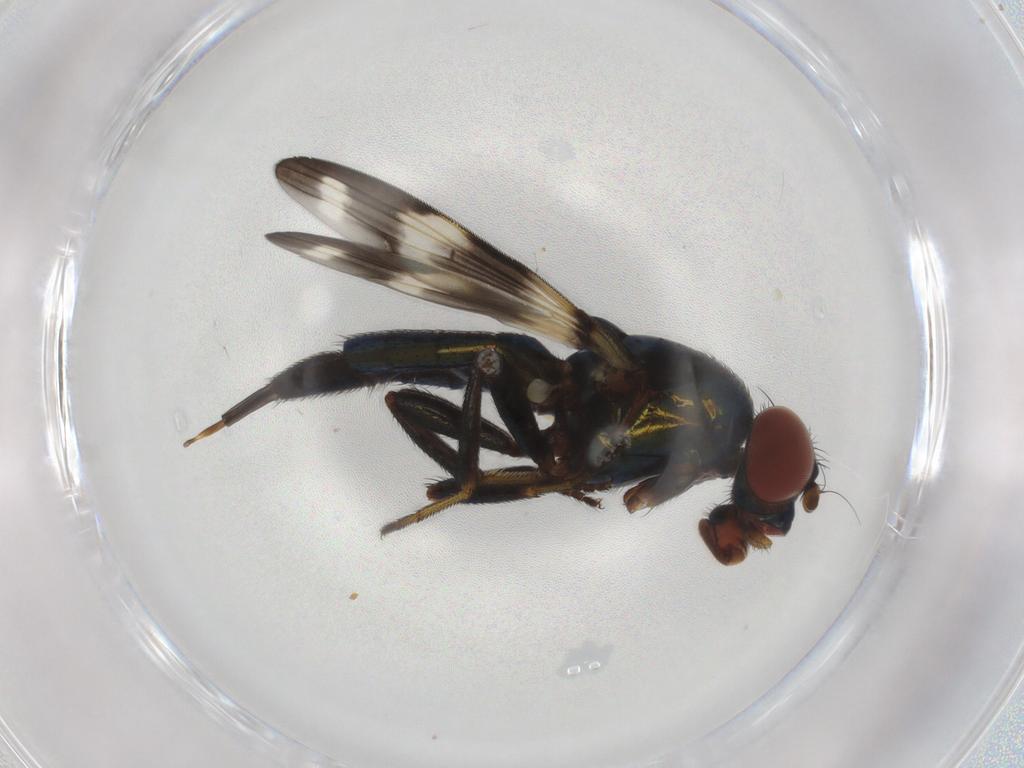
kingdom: Animalia
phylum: Arthropoda
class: Insecta
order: Diptera
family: Ulidiidae
